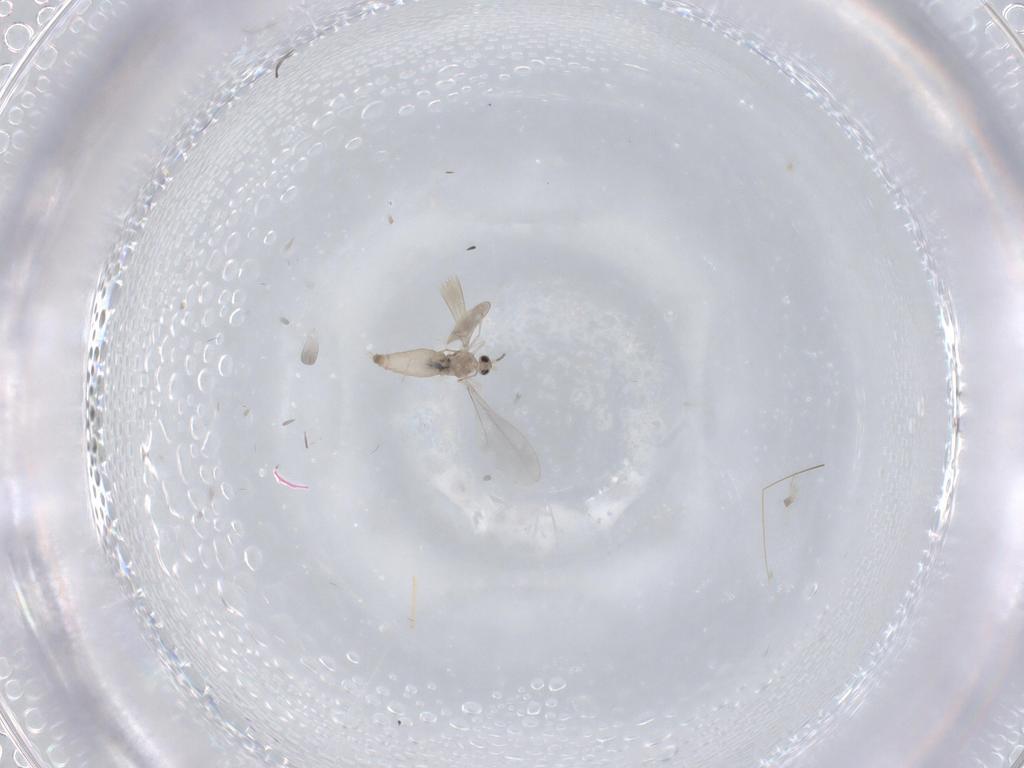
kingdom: Animalia
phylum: Arthropoda
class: Insecta
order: Diptera
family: Cecidomyiidae
